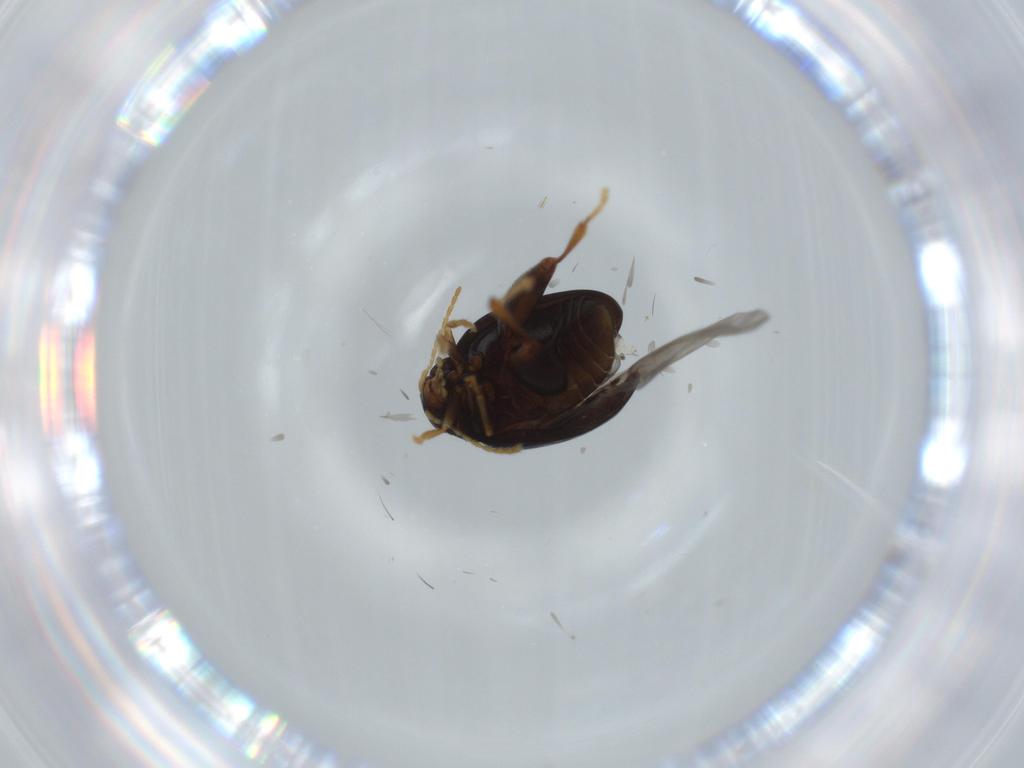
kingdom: Animalia
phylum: Arthropoda
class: Insecta
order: Coleoptera
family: Chrysomelidae
